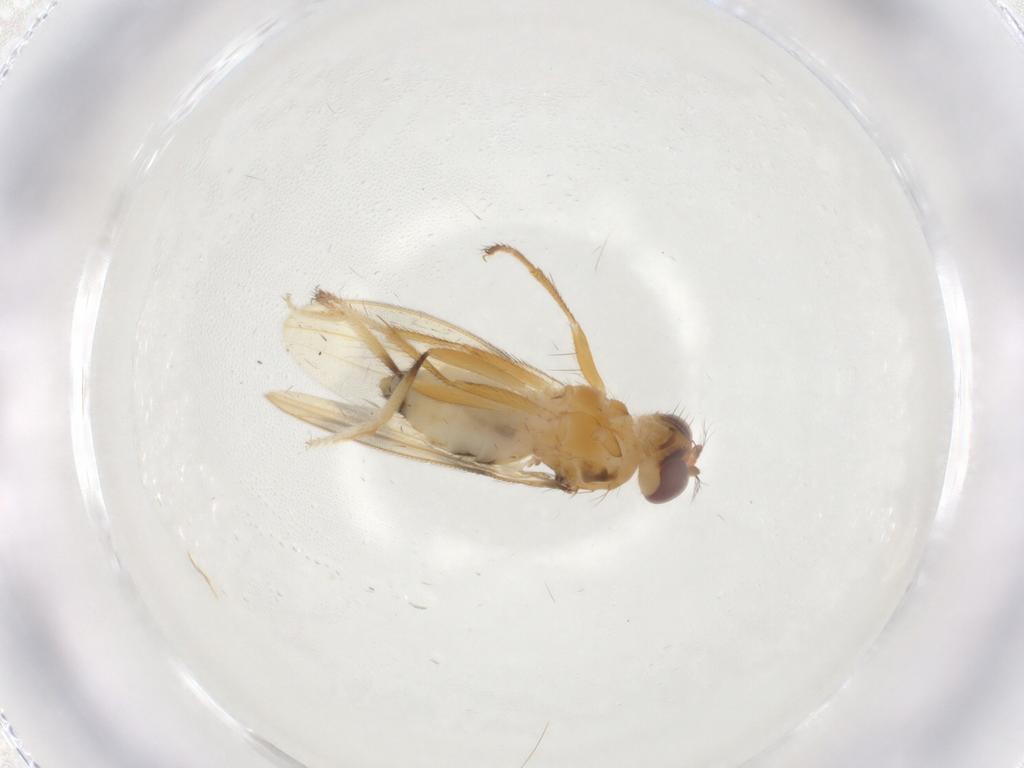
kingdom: Animalia
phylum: Arthropoda
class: Insecta
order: Diptera
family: Periscelididae
